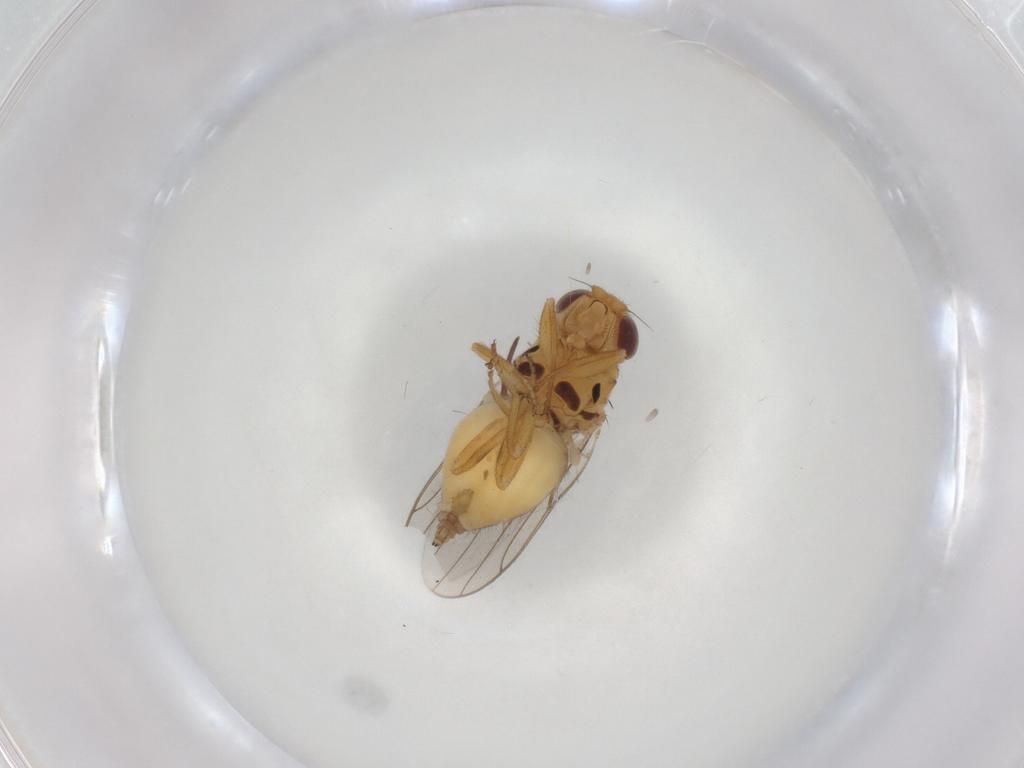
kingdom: Animalia
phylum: Arthropoda
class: Insecta
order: Diptera
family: Chloropidae
